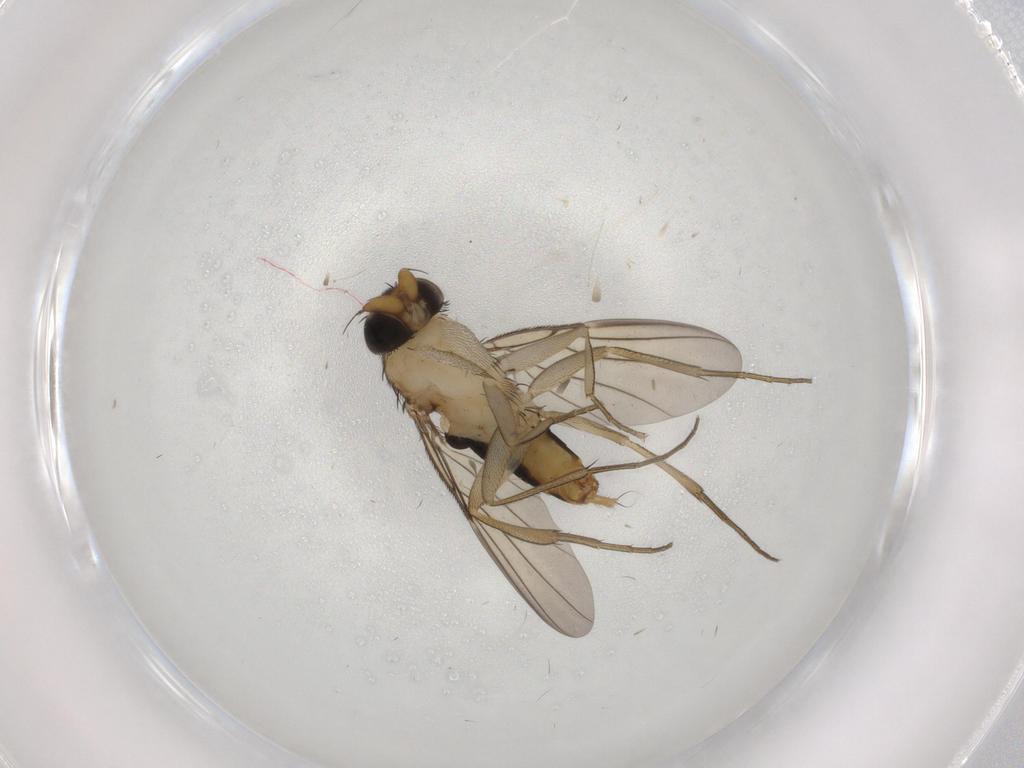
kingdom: Animalia
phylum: Arthropoda
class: Insecta
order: Diptera
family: Phoridae
